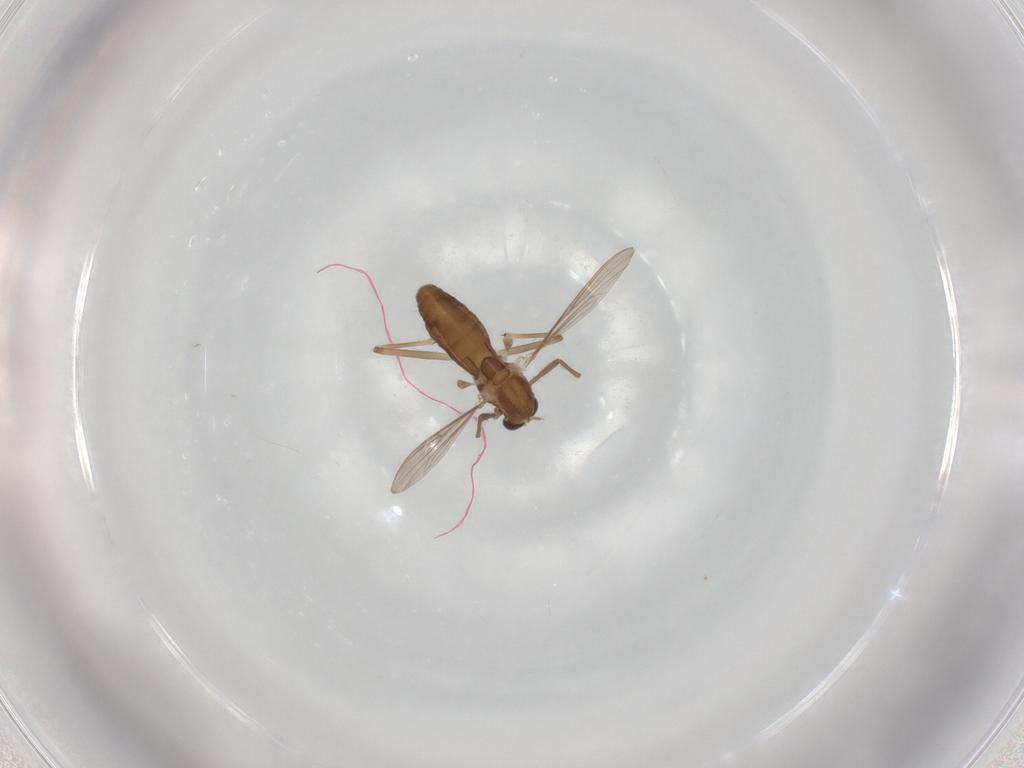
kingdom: Animalia
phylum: Arthropoda
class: Insecta
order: Diptera
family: Chironomidae
